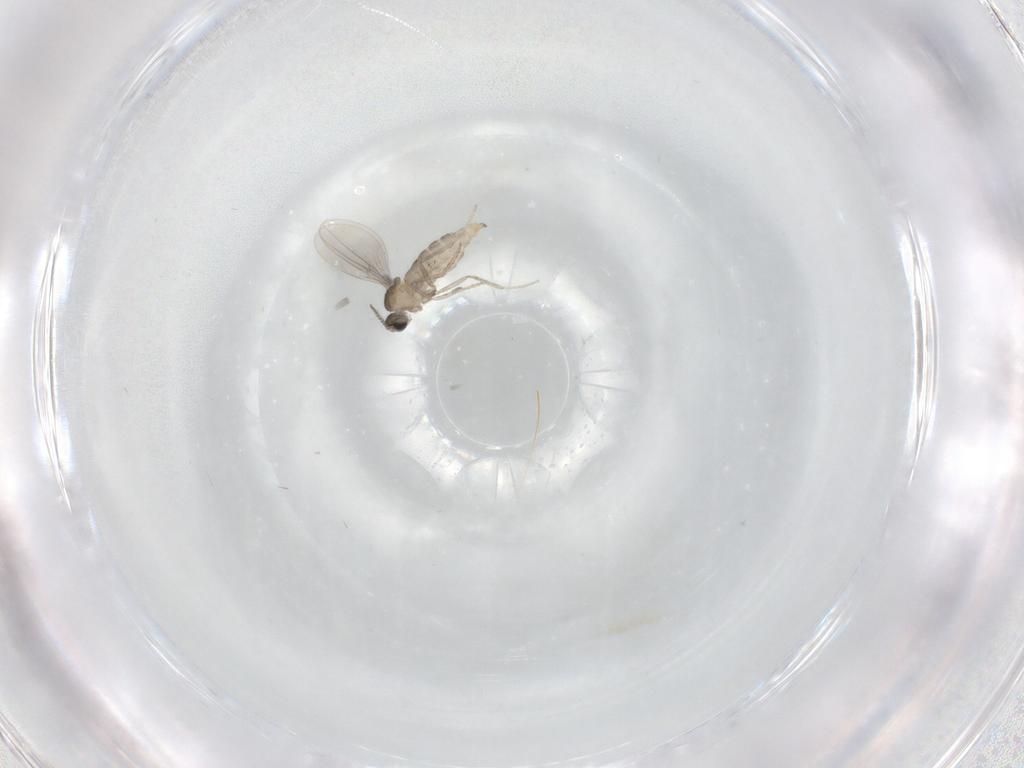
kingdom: Animalia
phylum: Arthropoda
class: Insecta
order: Diptera
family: Cecidomyiidae
